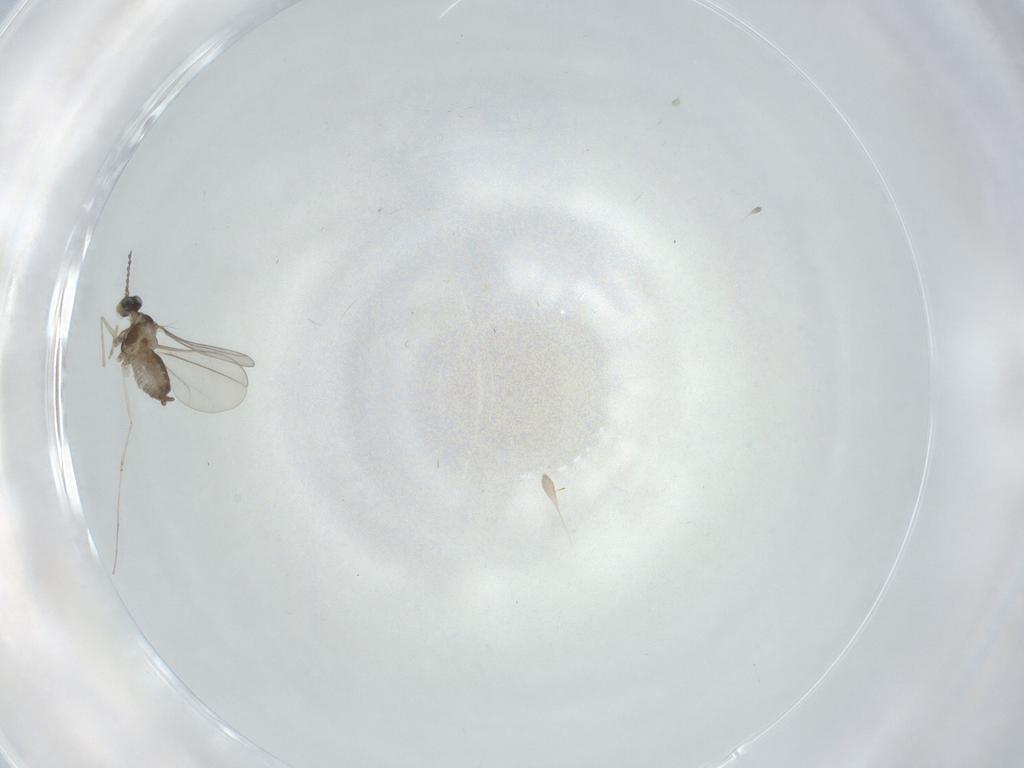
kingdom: Animalia
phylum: Arthropoda
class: Insecta
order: Diptera
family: Cecidomyiidae
